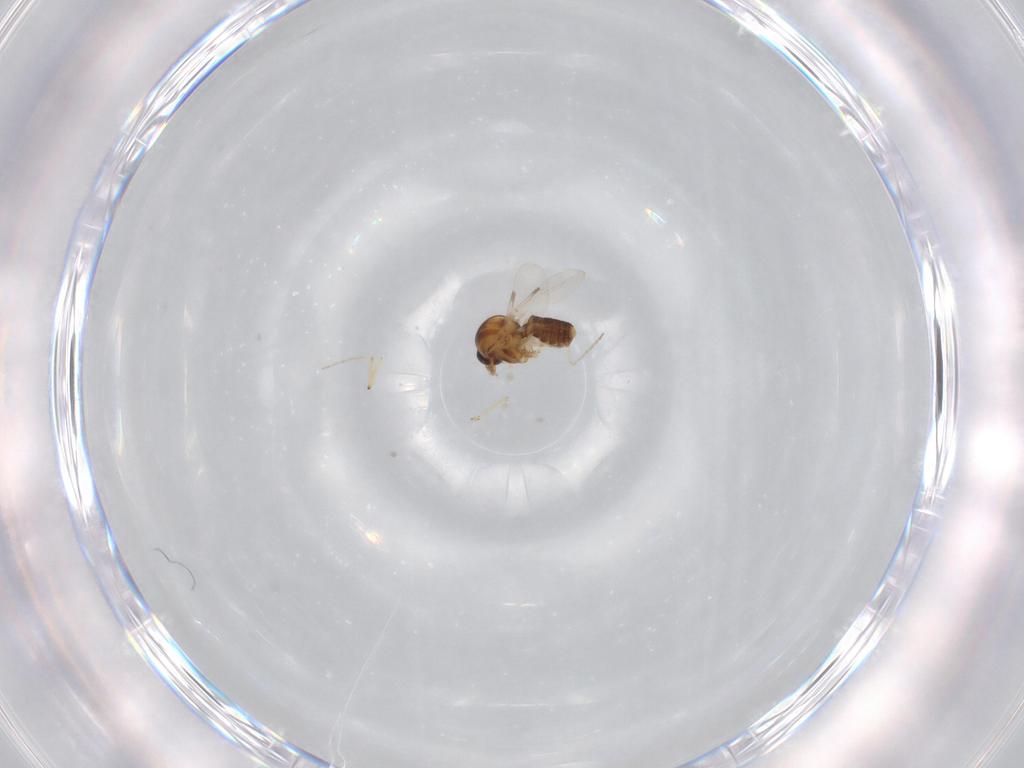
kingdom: Animalia
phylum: Arthropoda
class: Insecta
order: Diptera
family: Ceratopogonidae
